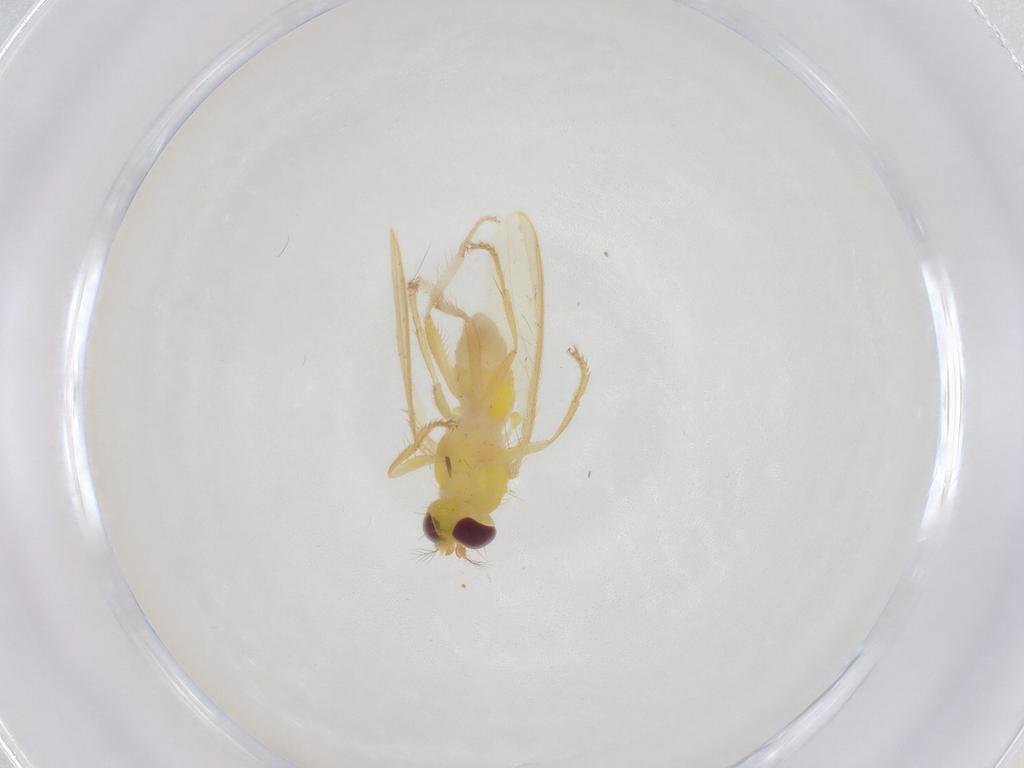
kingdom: Animalia
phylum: Arthropoda
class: Insecta
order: Diptera
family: Periscelididae
